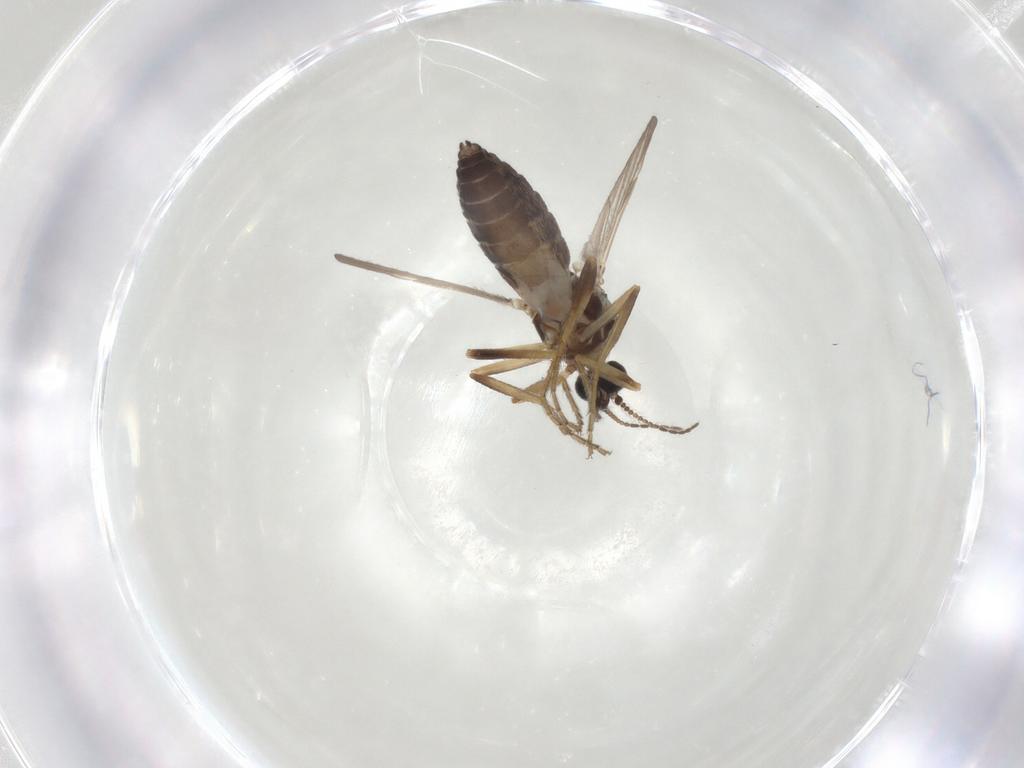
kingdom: Animalia
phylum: Arthropoda
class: Insecta
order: Diptera
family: Ceratopogonidae
